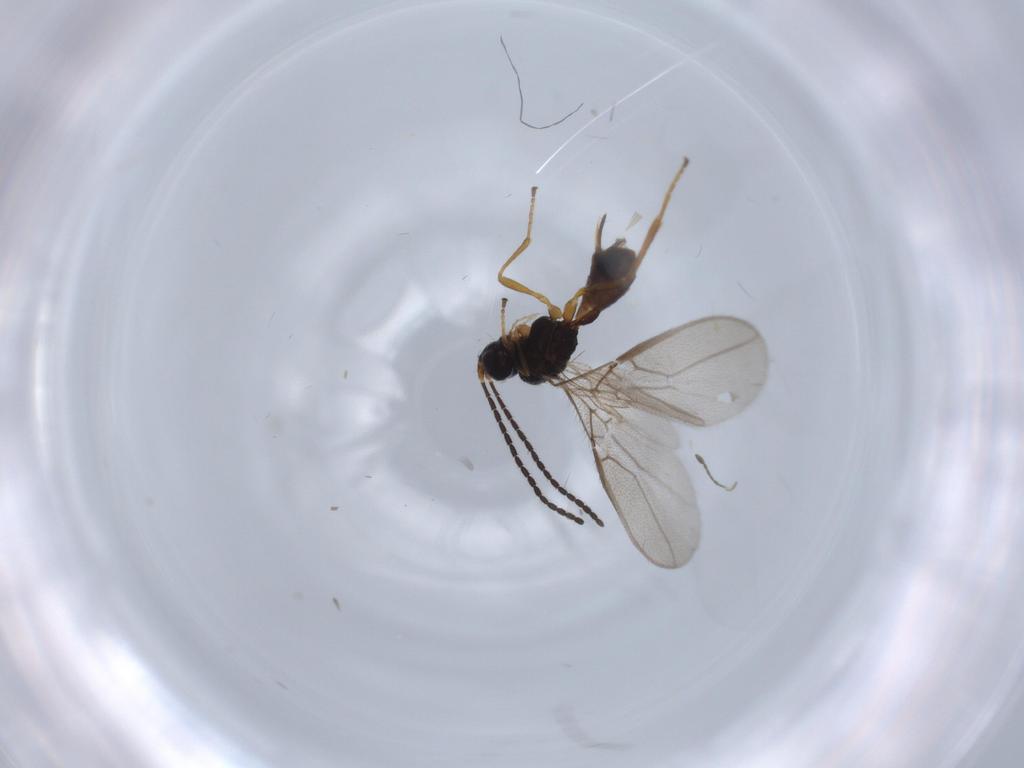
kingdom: Animalia
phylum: Arthropoda
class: Insecta
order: Hymenoptera
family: Braconidae
